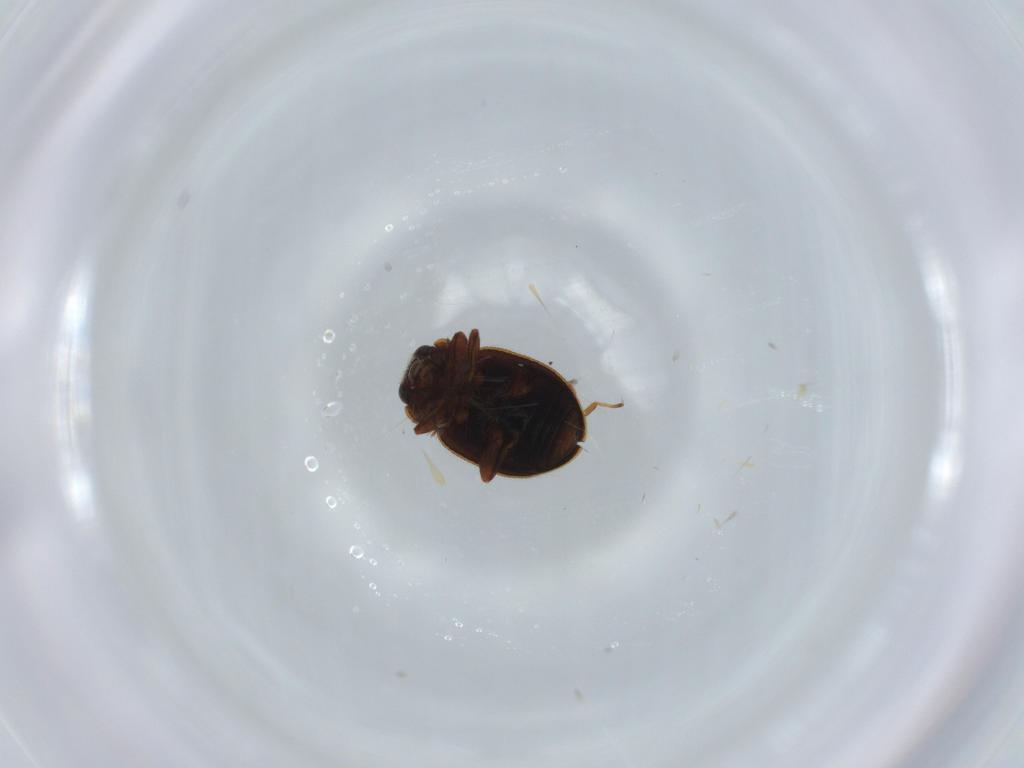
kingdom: Animalia
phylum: Arthropoda
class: Insecta
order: Coleoptera
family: Coccinellidae
